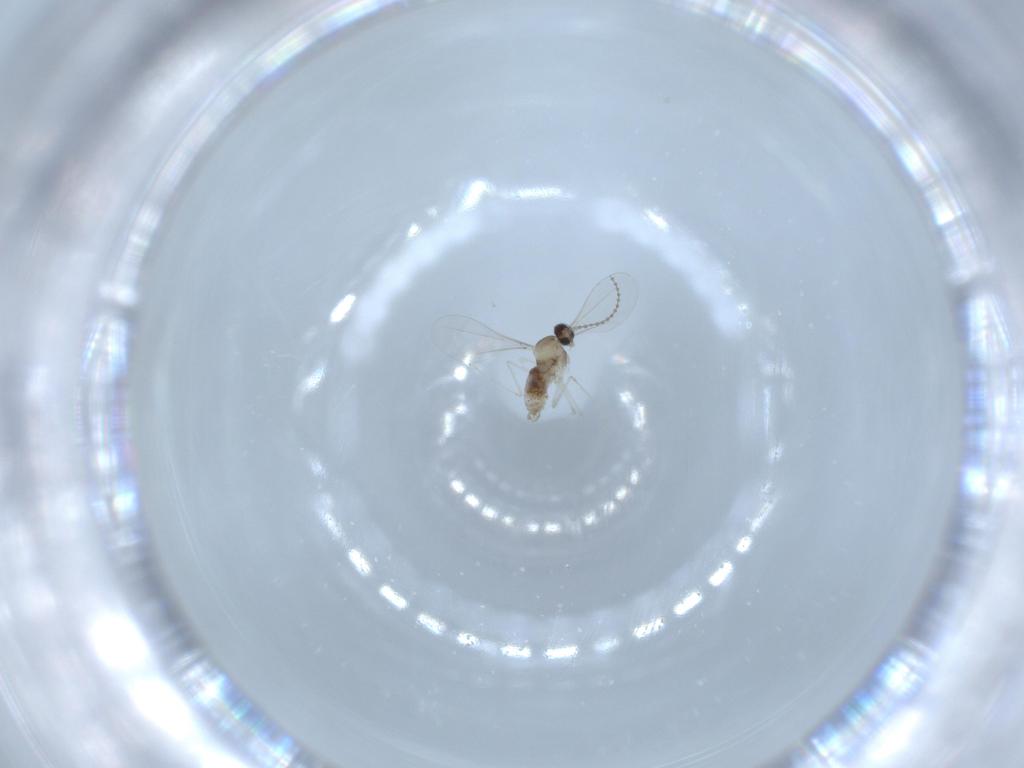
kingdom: Animalia
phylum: Arthropoda
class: Insecta
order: Diptera
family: Cecidomyiidae
